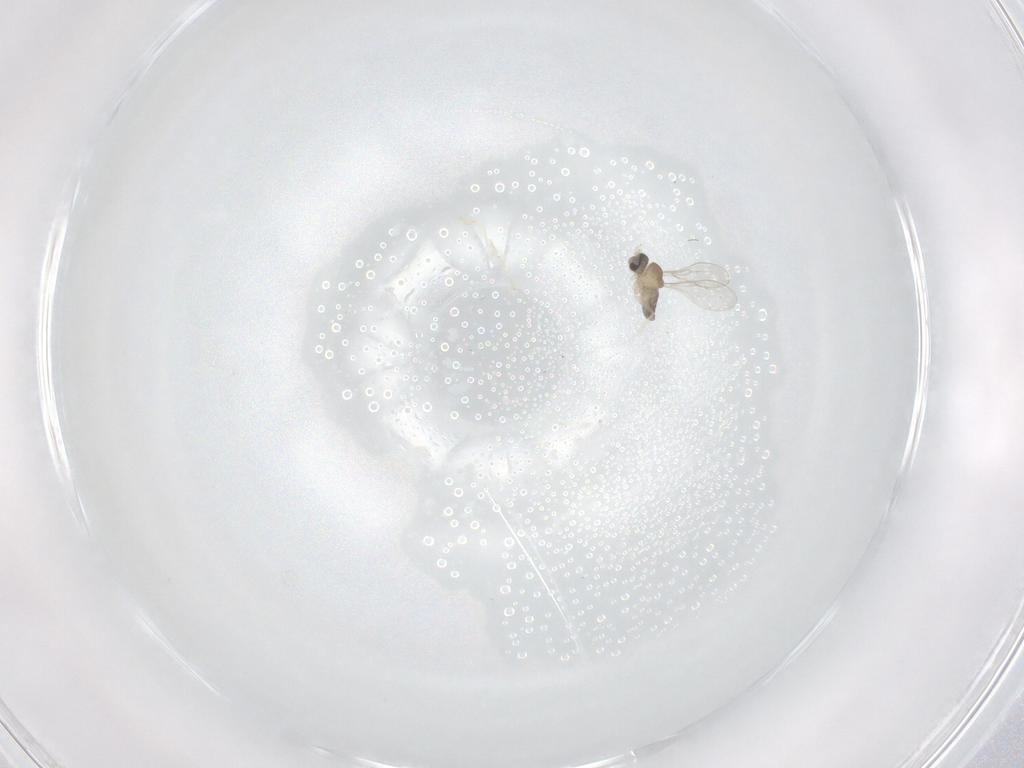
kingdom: Animalia
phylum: Arthropoda
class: Insecta
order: Diptera
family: Cecidomyiidae
